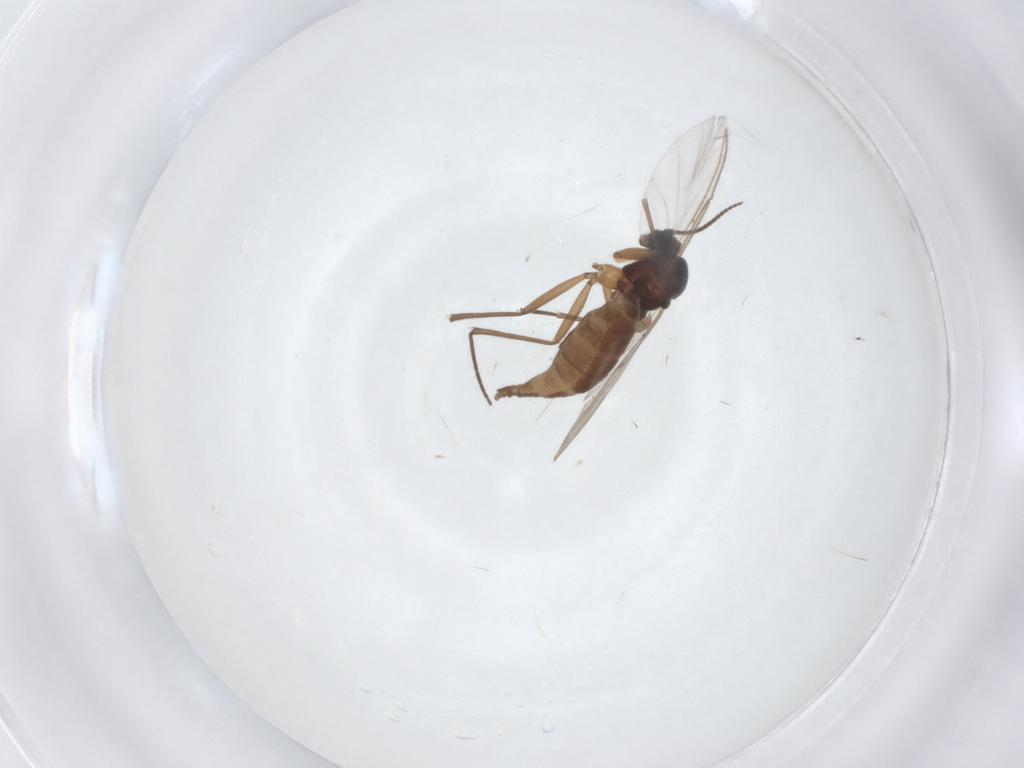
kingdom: Animalia
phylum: Arthropoda
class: Insecta
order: Diptera
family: Sciaridae
